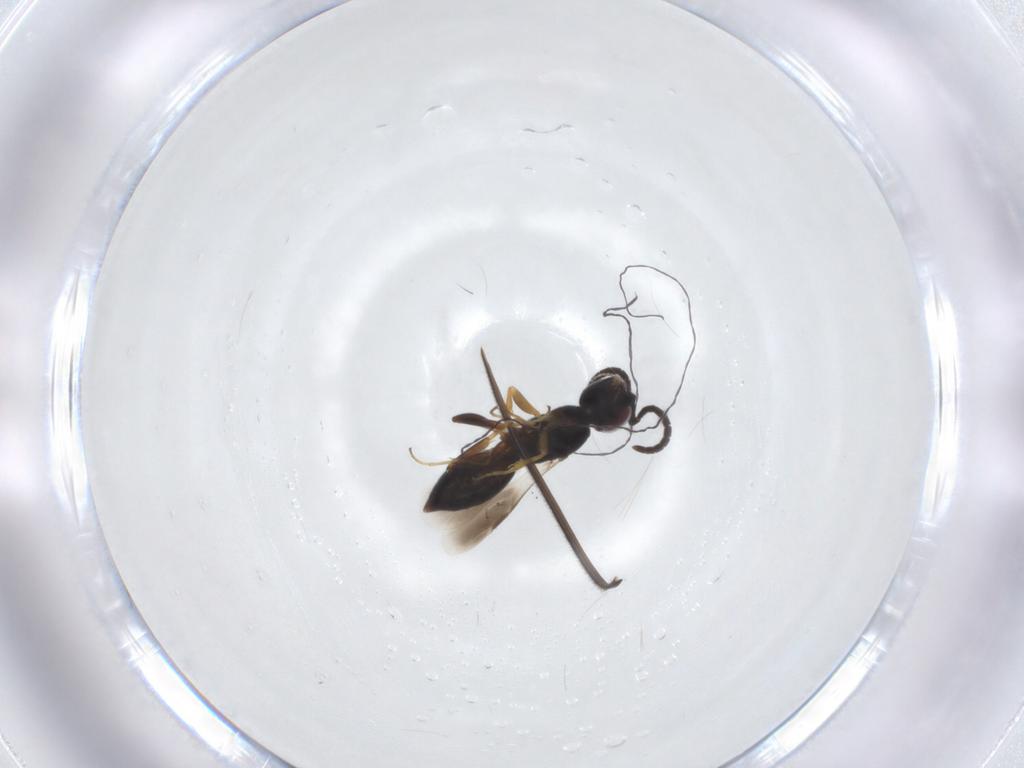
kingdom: Animalia
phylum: Arthropoda
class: Insecta
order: Hymenoptera
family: Ichneumonidae
